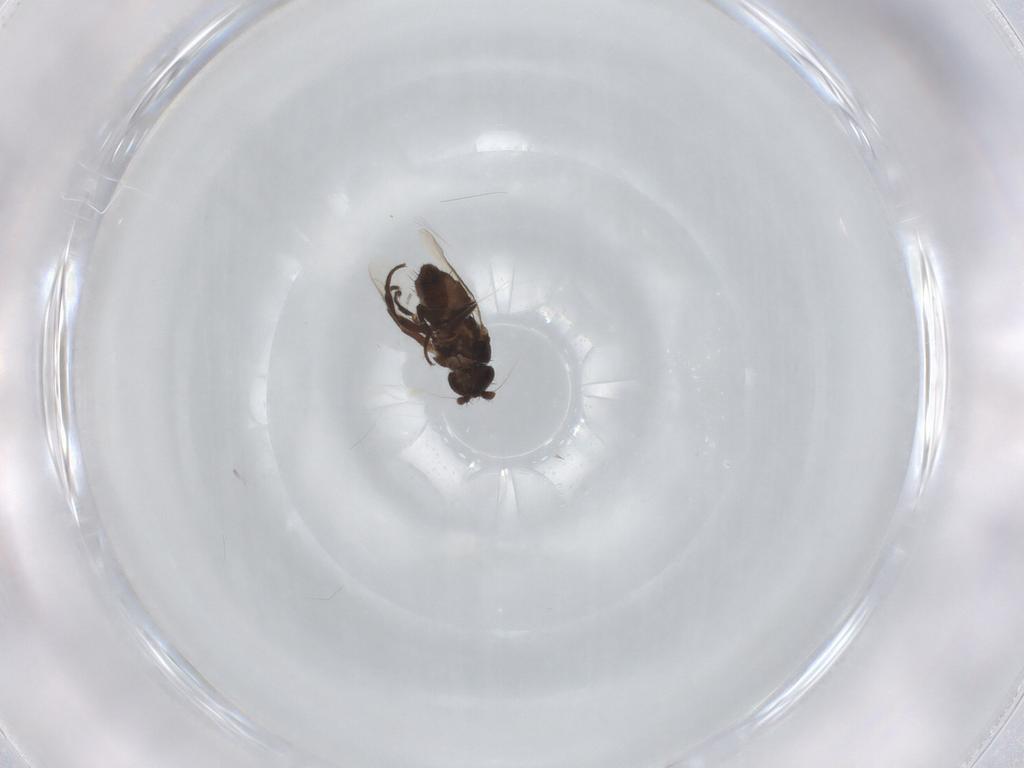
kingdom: Animalia
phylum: Arthropoda
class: Insecta
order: Diptera
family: Sphaeroceridae
